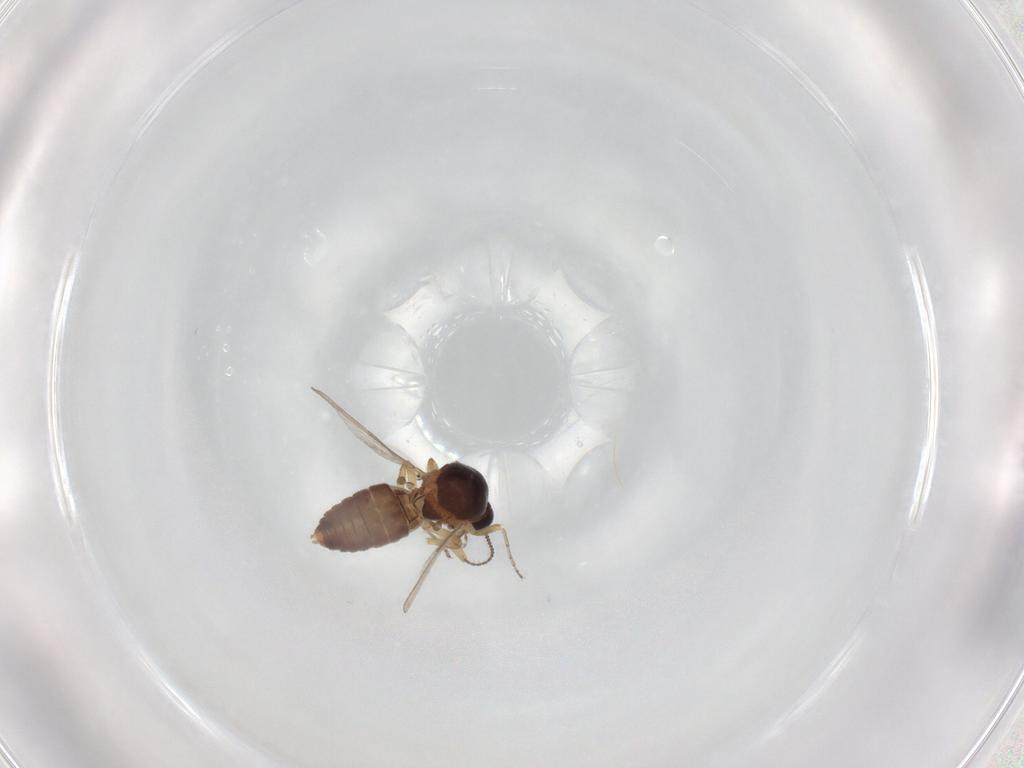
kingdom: Animalia
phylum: Arthropoda
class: Insecta
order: Diptera
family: Ceratopogonidae
